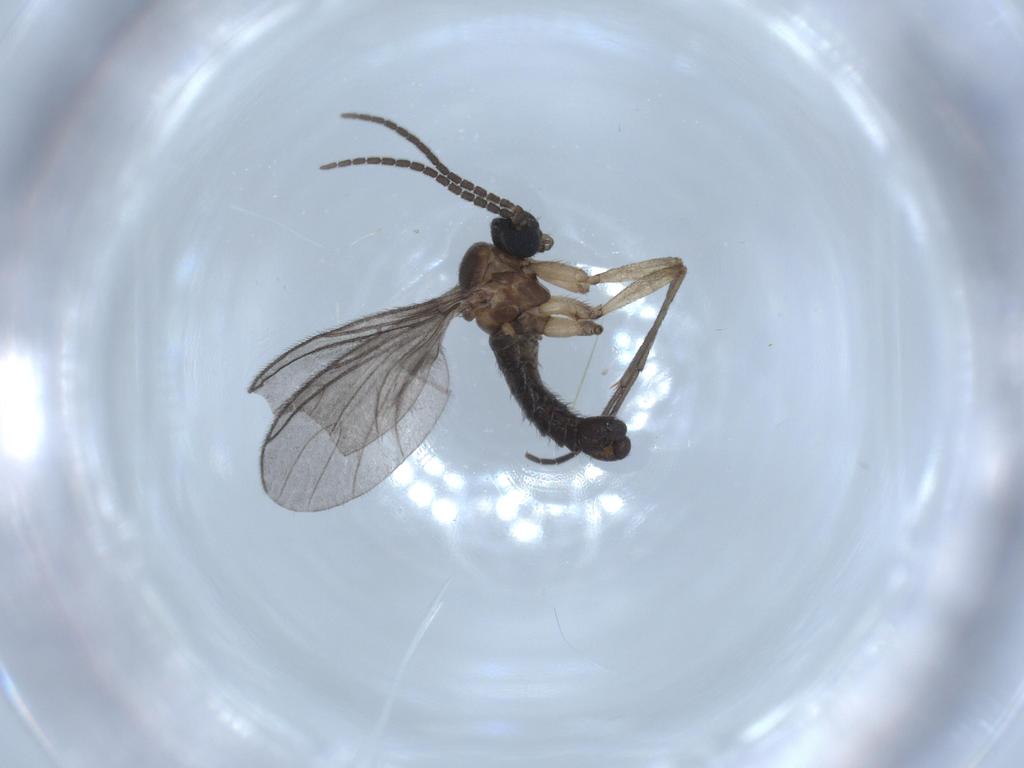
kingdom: Animalia
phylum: Arthropoda
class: Insecta
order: Diptera
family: Sciaridae
